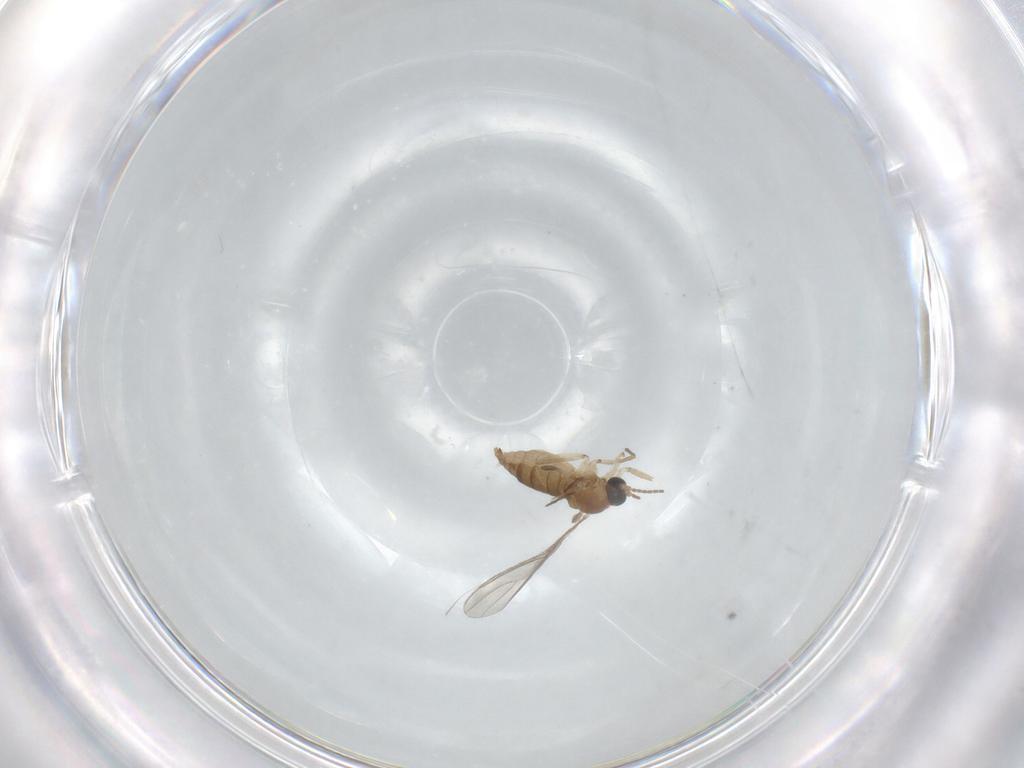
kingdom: Animalia
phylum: Arthropoda
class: Insecta
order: Diptera
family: Sciaridae
